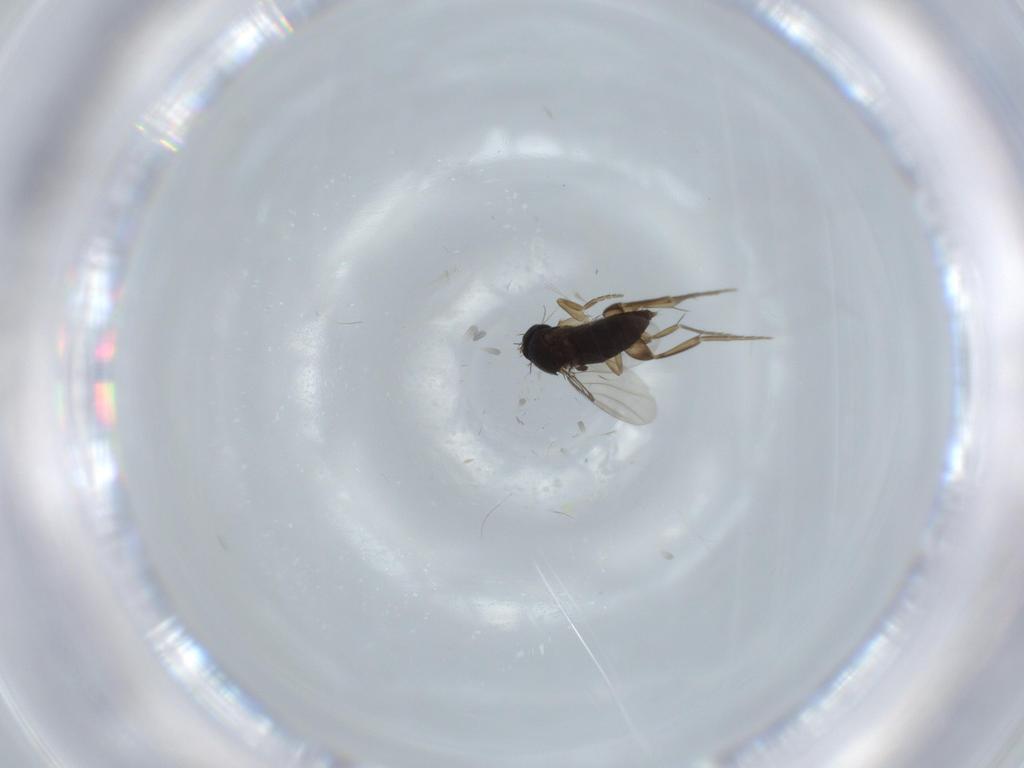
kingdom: Animalia
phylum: Arthropoda
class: Insecta
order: Diptera
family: Phoridae
